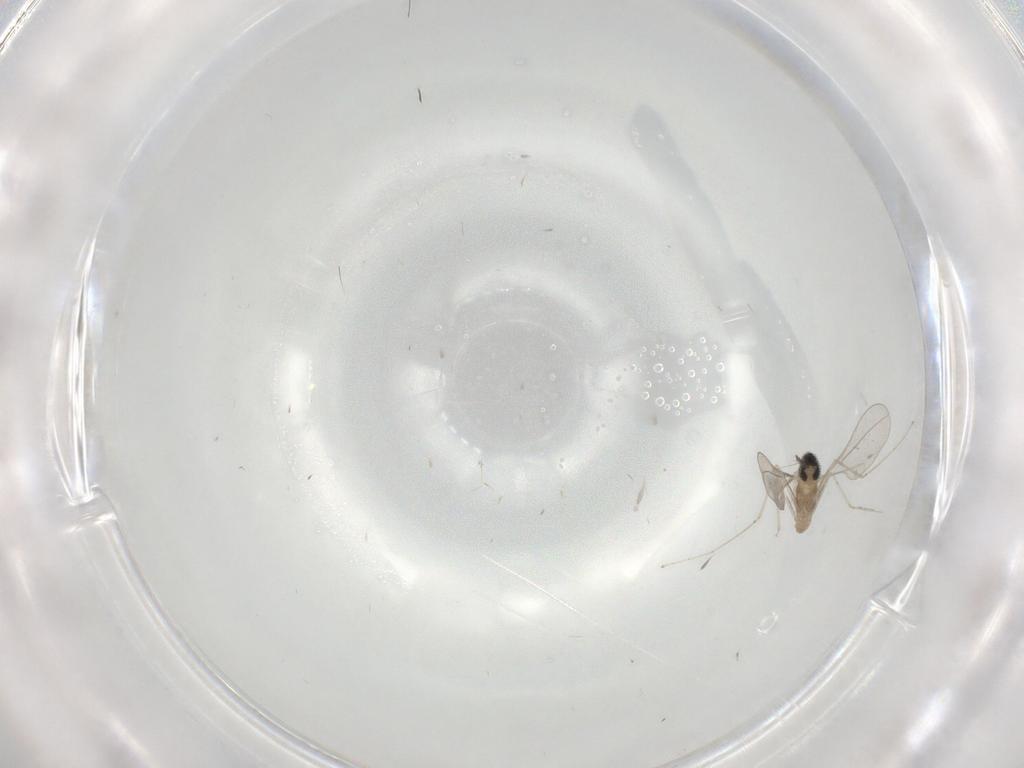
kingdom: Animalia
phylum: Arthropoda
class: Insecta
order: Diptera
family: Cecidomyiidae
